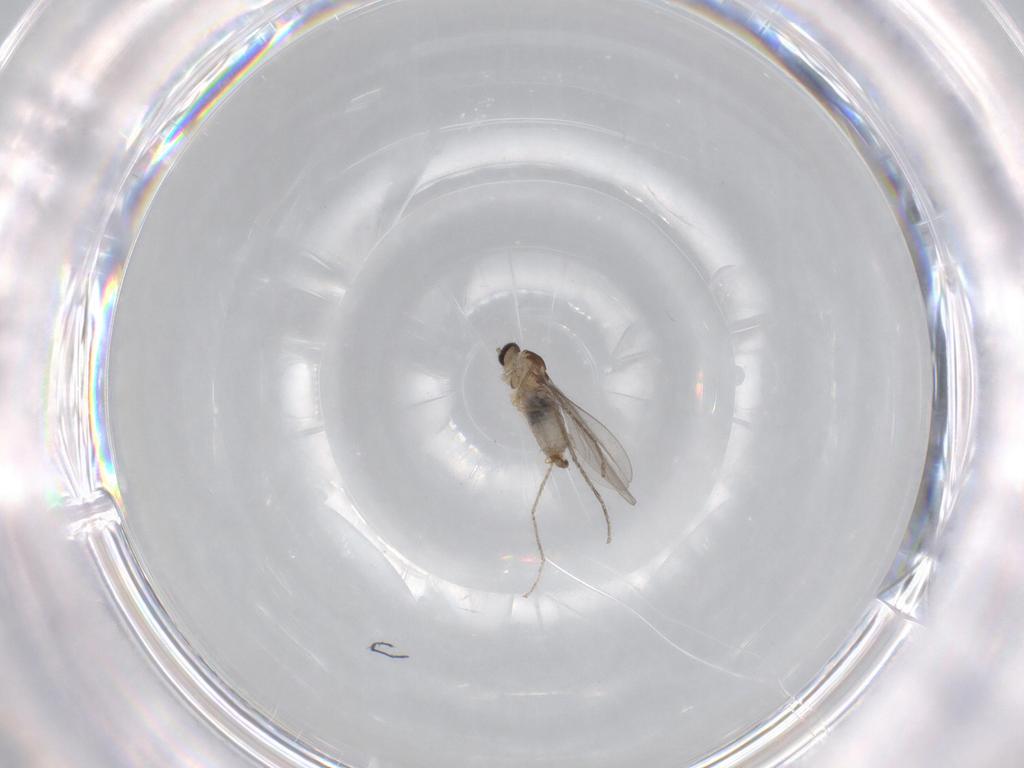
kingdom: Animalia
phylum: Arthropoda
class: Insecta
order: Diptera
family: Cecidomyiidae
